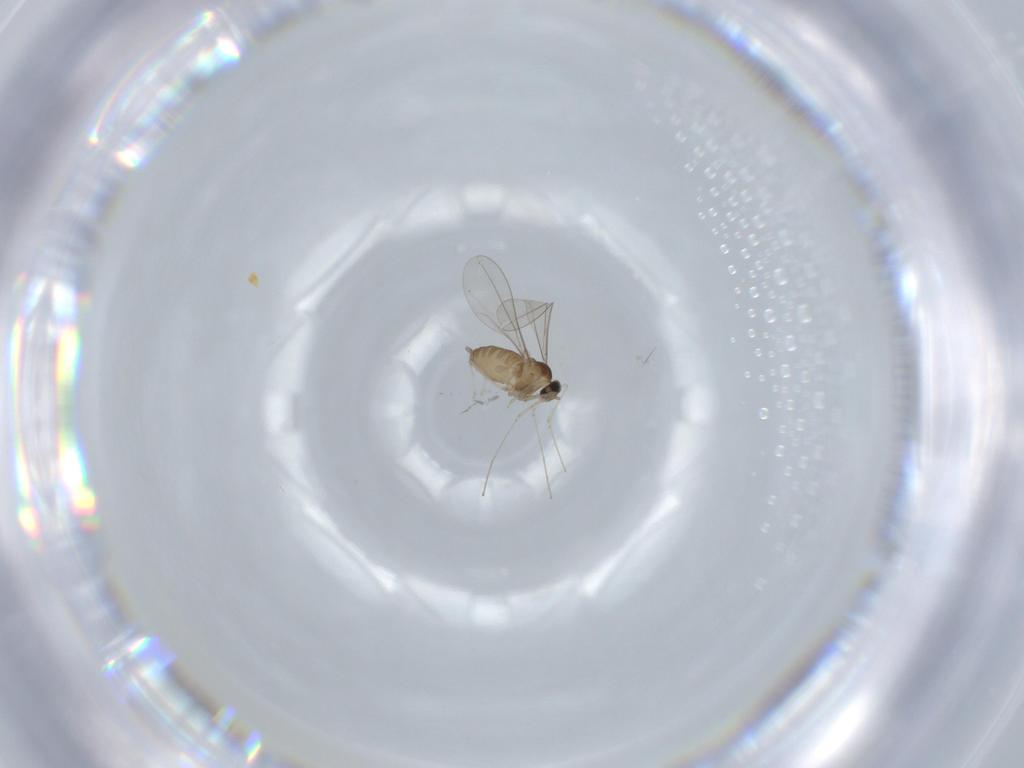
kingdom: Animalia
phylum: Arthropoda
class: Insecta
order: Diptera
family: Cecidomyiidae
